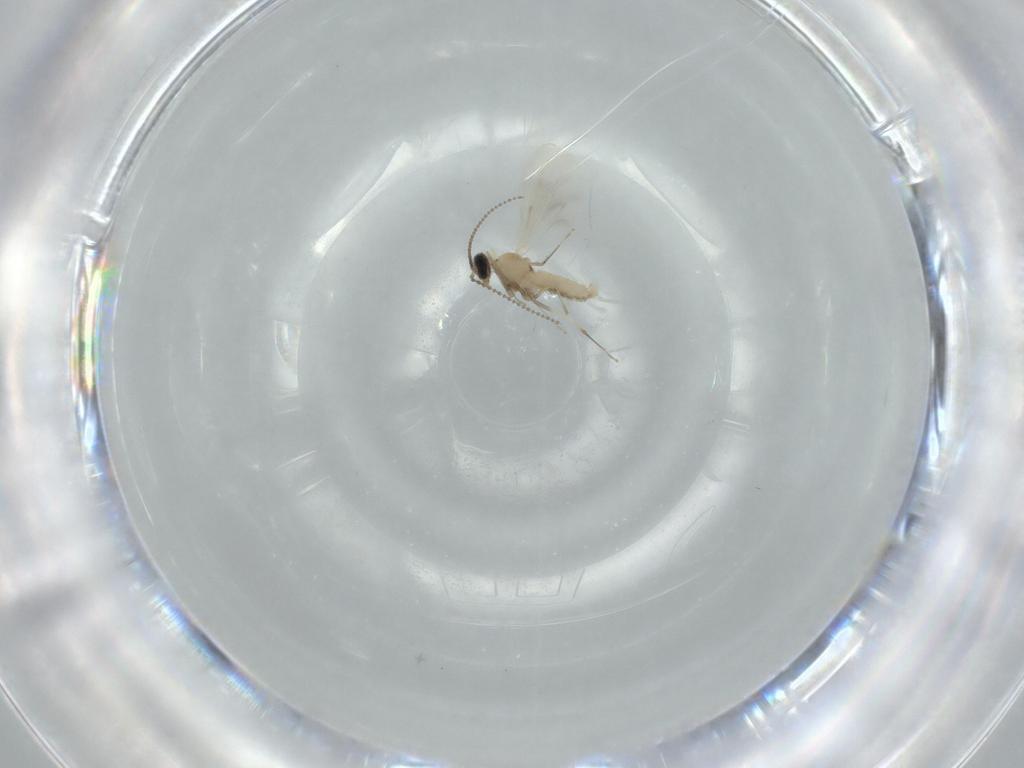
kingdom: Animalia
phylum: Arthropoda
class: Insecta
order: Diptera
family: Cecidomyiidae
